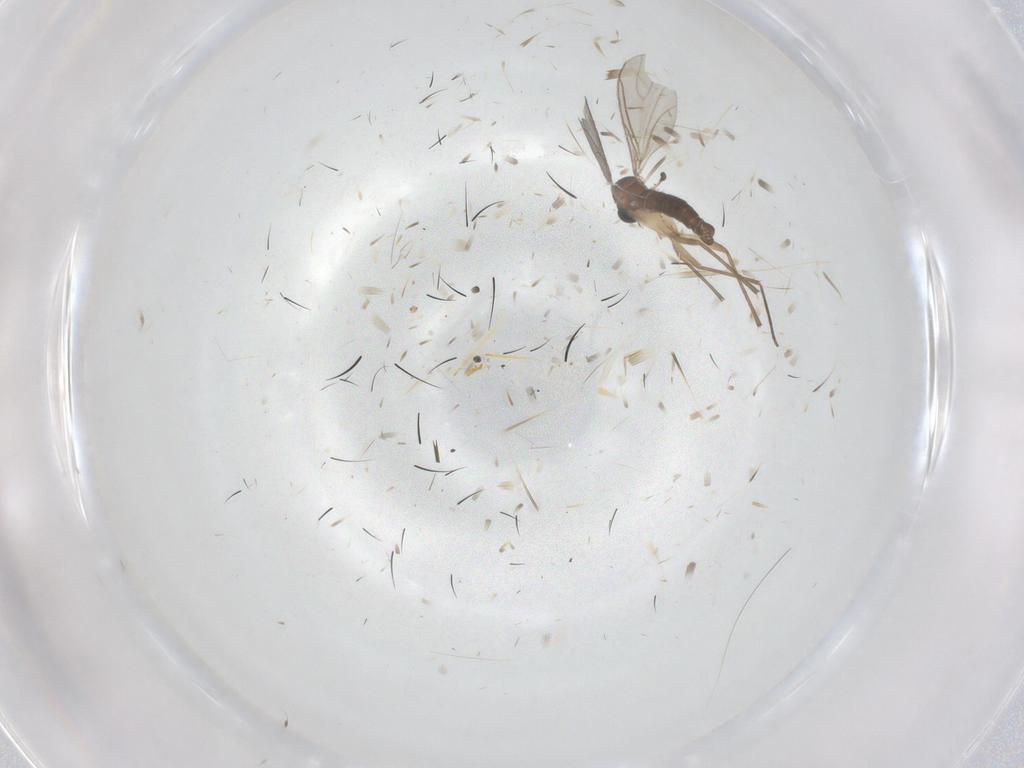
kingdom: Animalia
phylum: Arthropoda
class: Insecta
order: Diptera
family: Sciaridae
